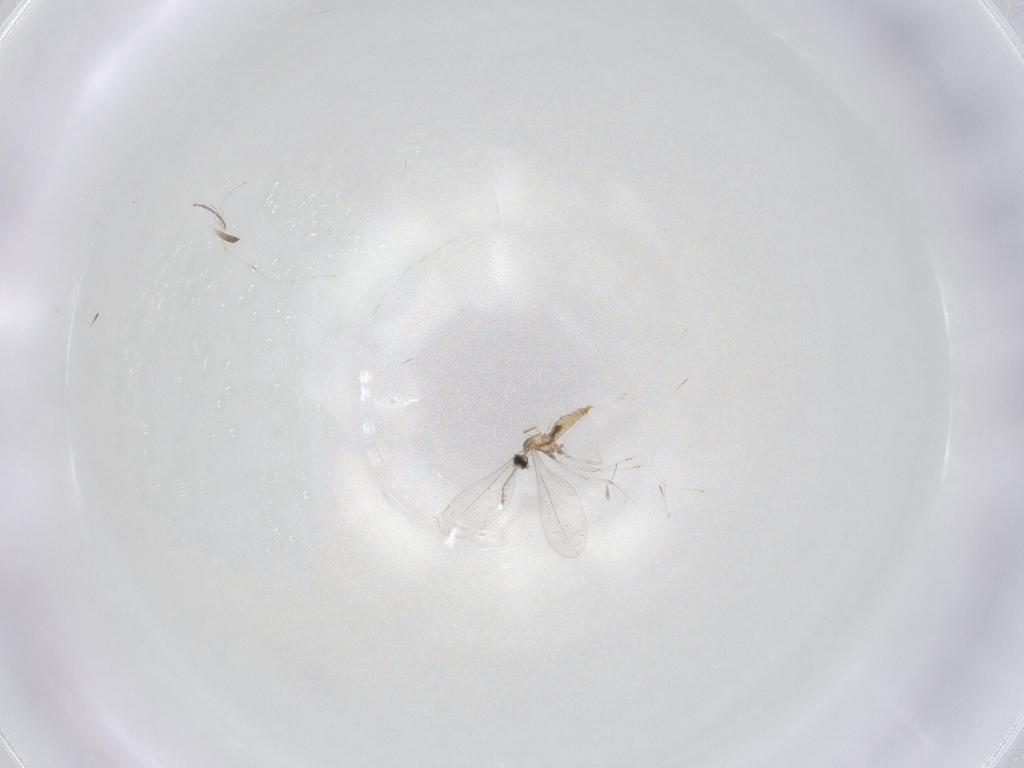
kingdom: Animalia
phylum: Arthropoda
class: Insecta
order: Diptera
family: Cecidomyiidae
